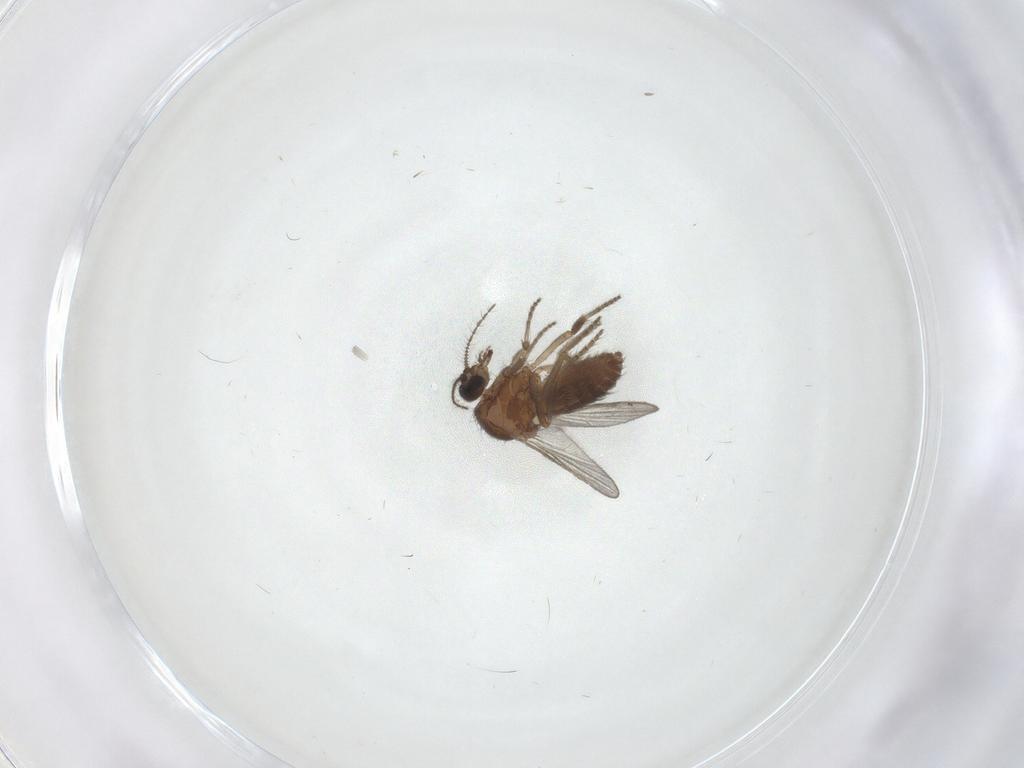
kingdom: Animalia
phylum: Arthropoda
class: Insecta
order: Diptera
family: Ceratopogonidae
